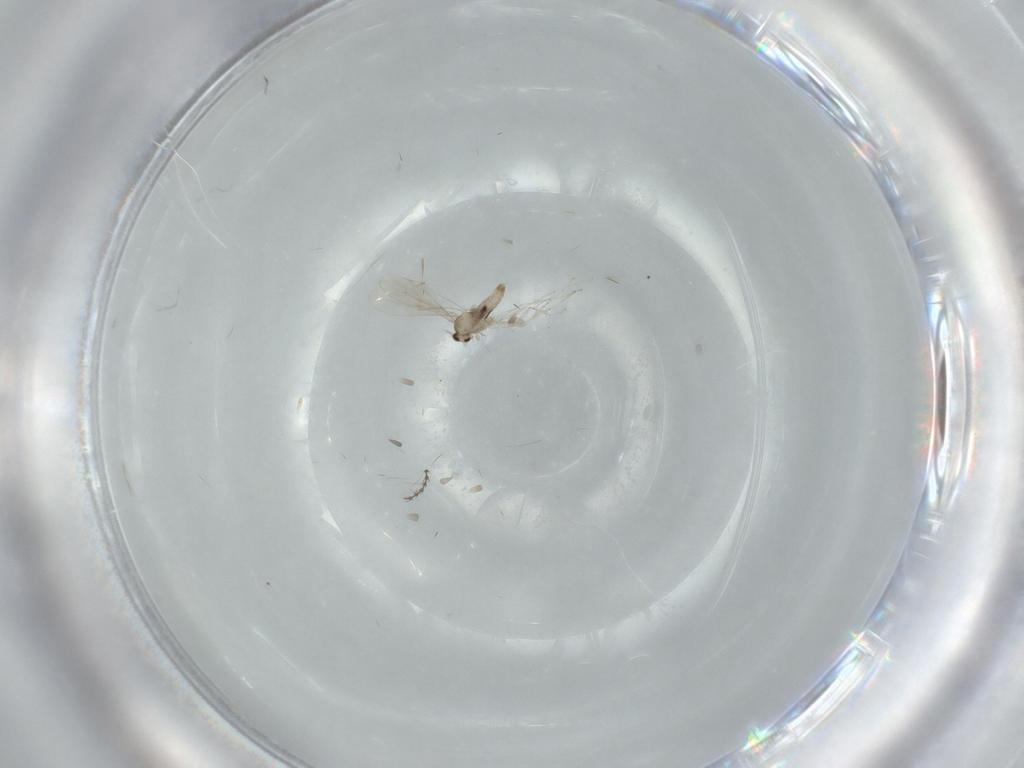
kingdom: Animalia
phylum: Arthropoda
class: Insecta
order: Diptera
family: Cecidomyiidae
